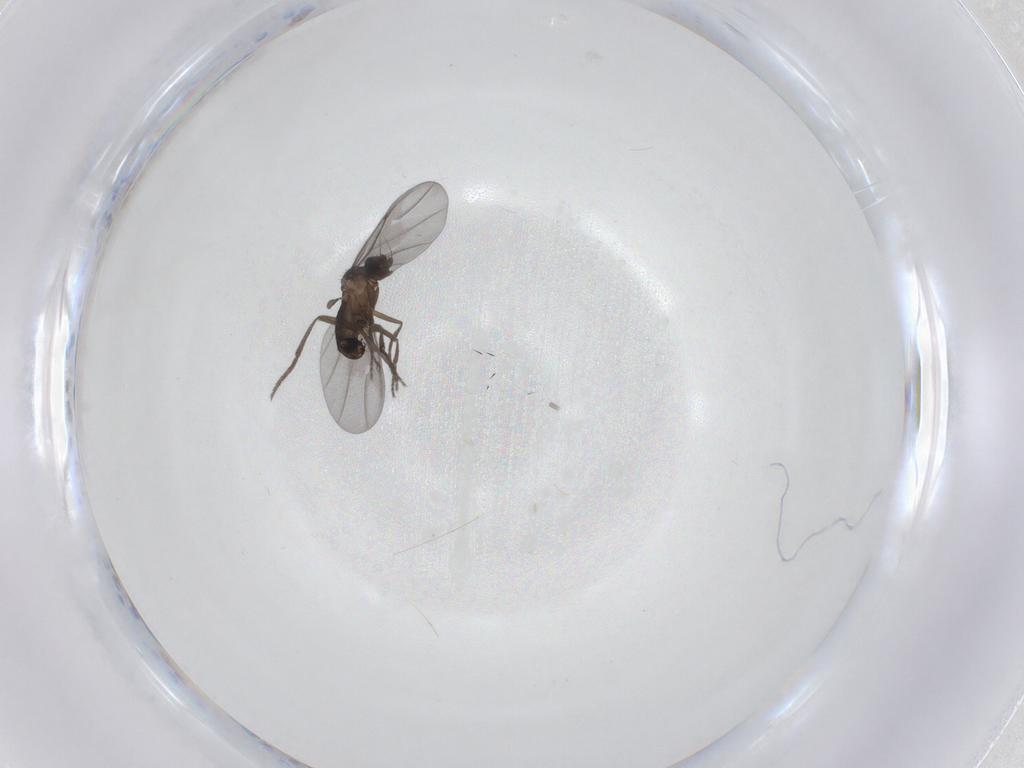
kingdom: Animalia
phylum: Arthropoda
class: Insecta
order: Diptera
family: Phoridae
